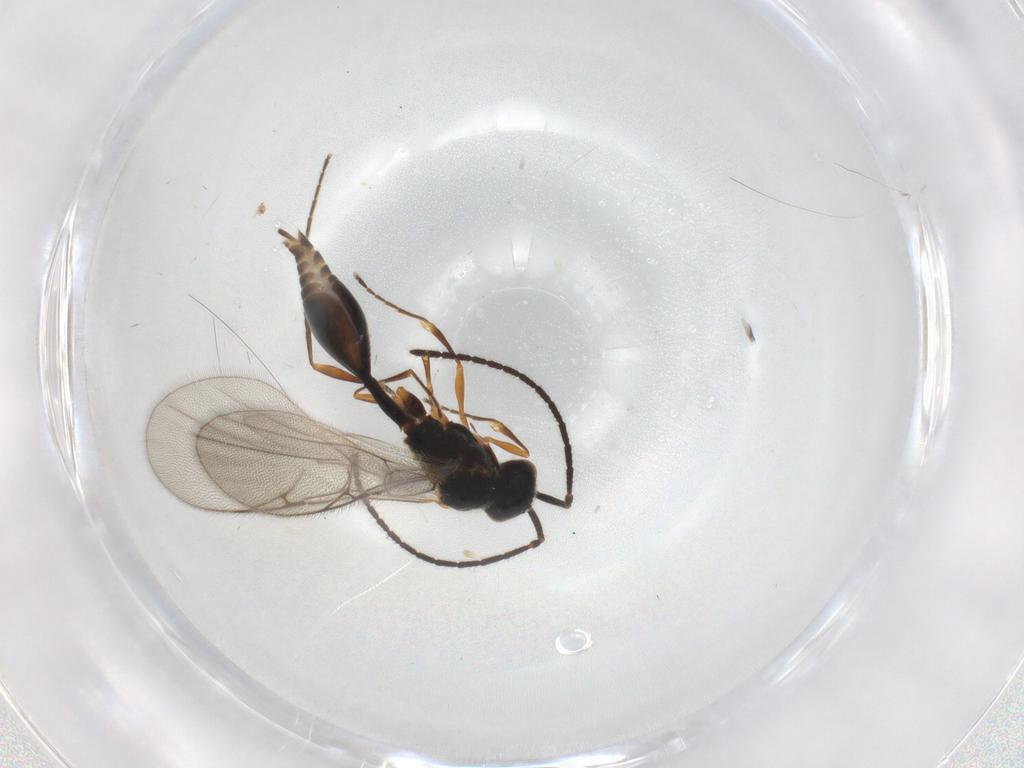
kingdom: Animalia
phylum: Arthropoda
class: Insecta
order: Hymenoptera
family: Diapriidae
